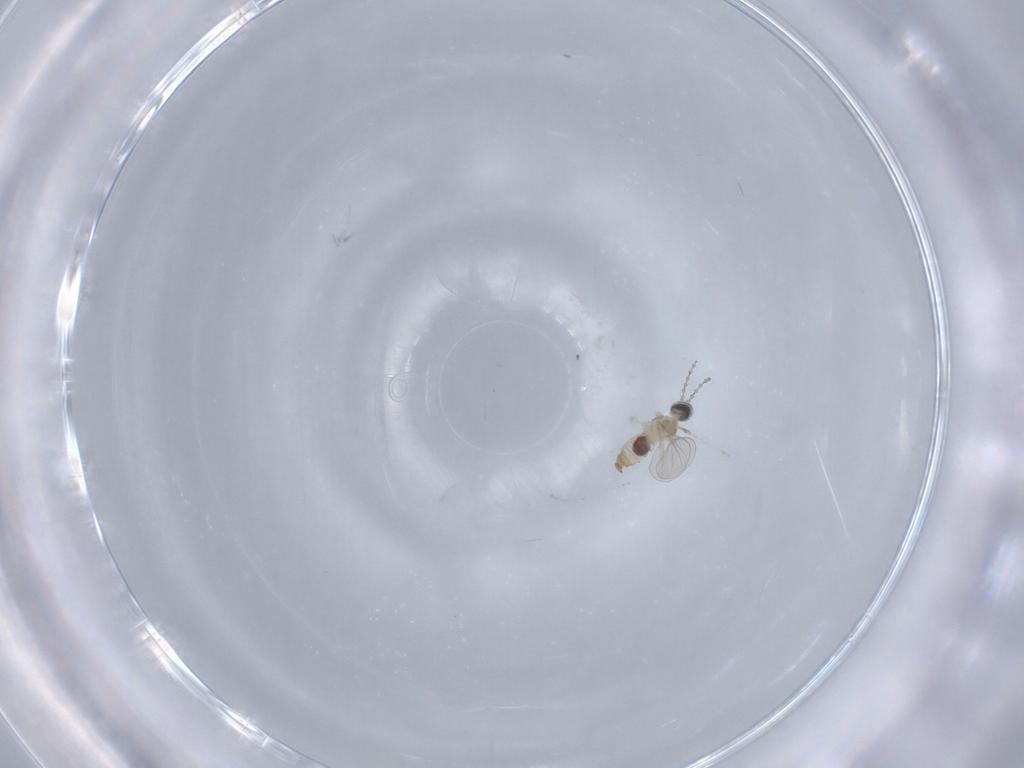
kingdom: Animalia
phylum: Arthropoda
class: Insecta
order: Diptera
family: Cecidomyiidae
